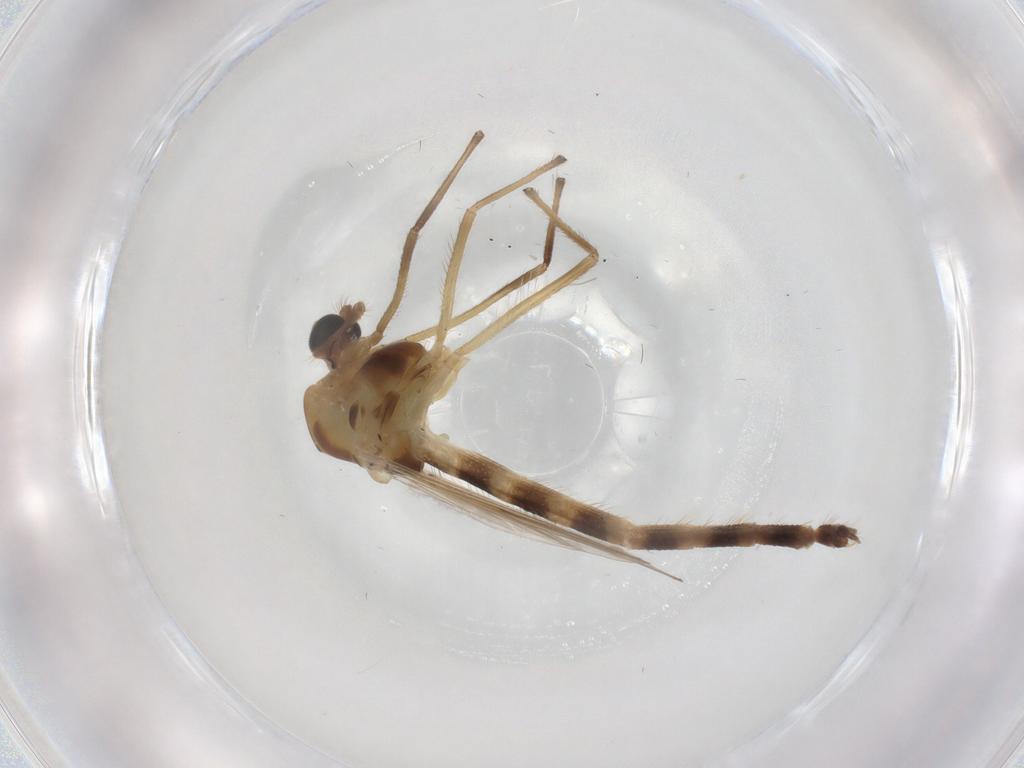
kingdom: Animalia
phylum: Arthropoda
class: Insecta
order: Diptera
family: Chironomidae
